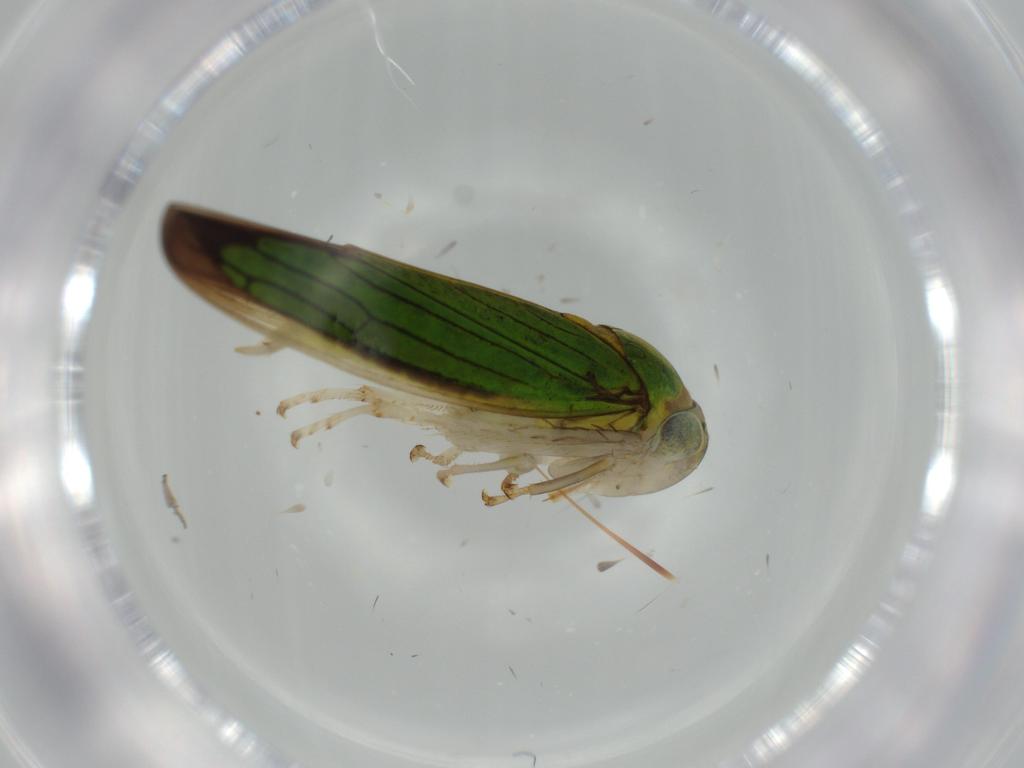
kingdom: Animalia
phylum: Arthropoda
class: Insecta
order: Hemiptera
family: Cicadellidae
